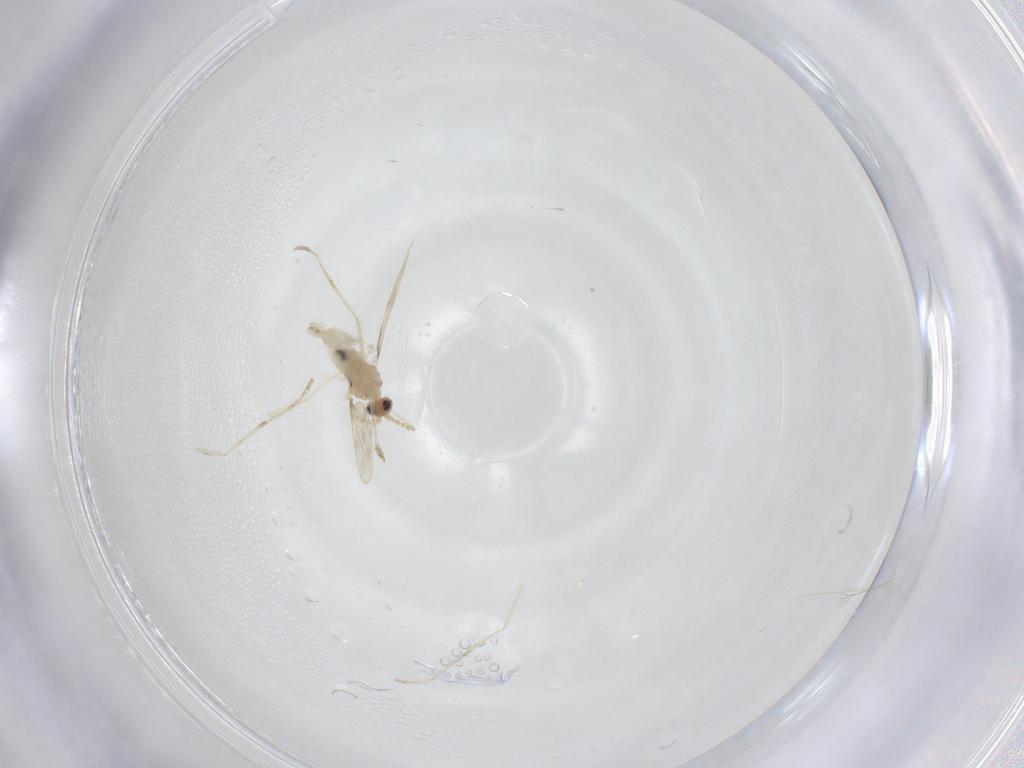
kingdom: Animalia
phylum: Arthropoda
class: Insecta
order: Diptera
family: Cecidomyiidae
